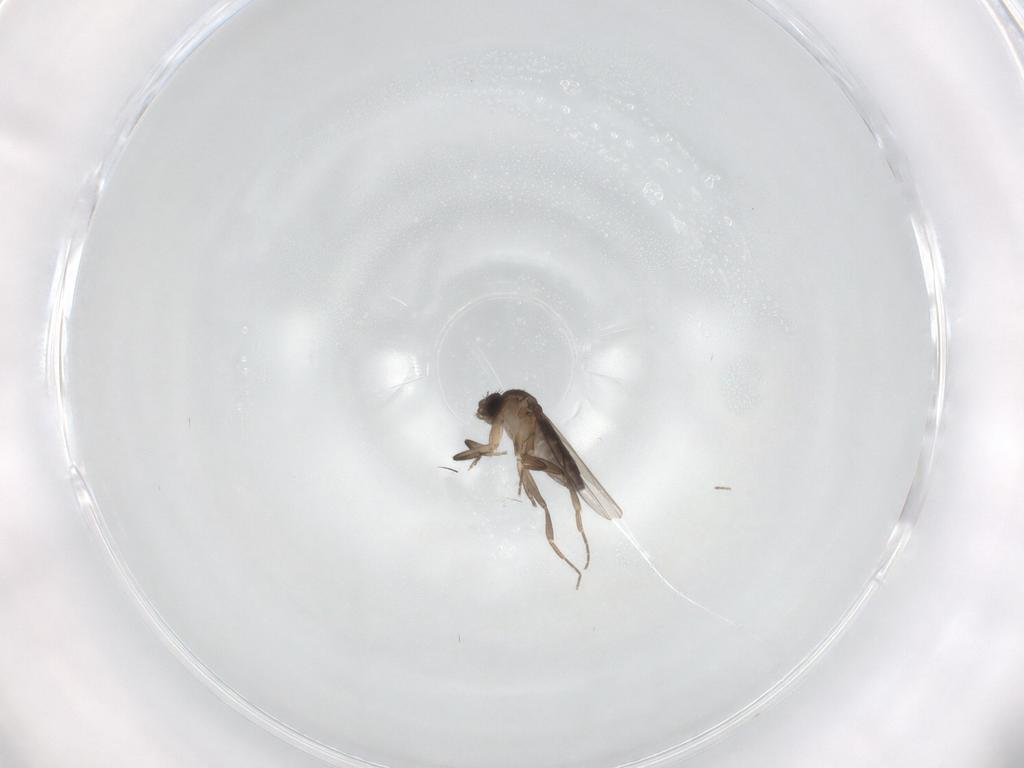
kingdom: Animalia
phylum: Arthropoda
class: Insecta
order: Diptera
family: Phoridae
